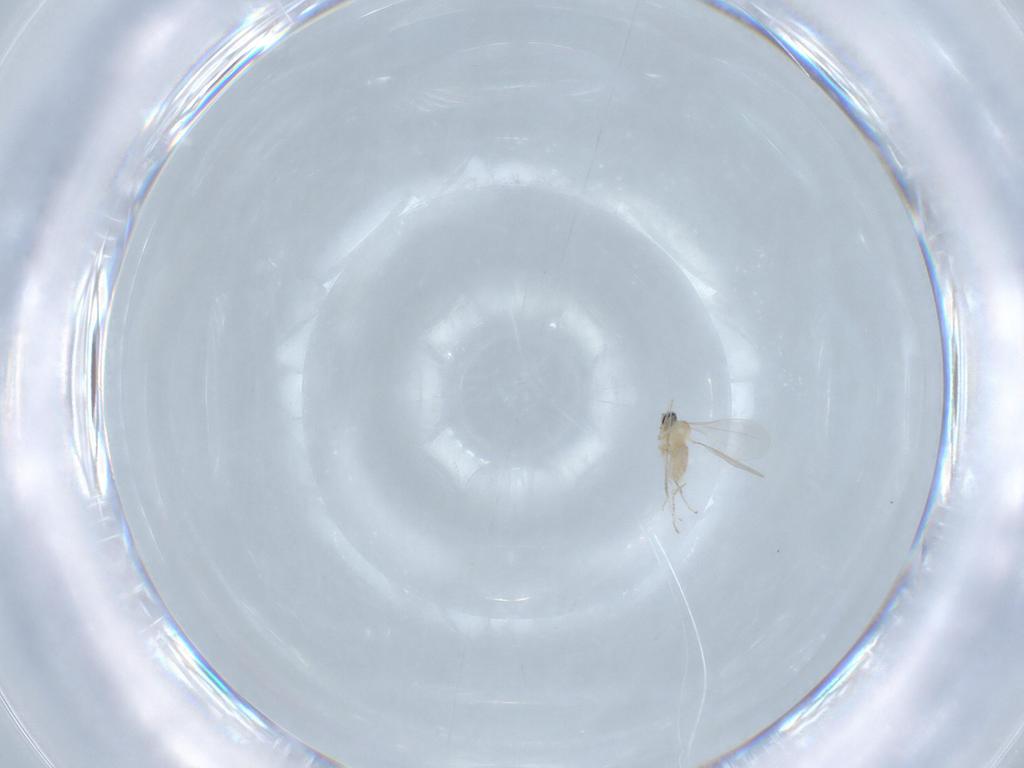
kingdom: Animalia
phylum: Arthropoda
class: Insecta
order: Diptera
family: Cecidomyiidae
